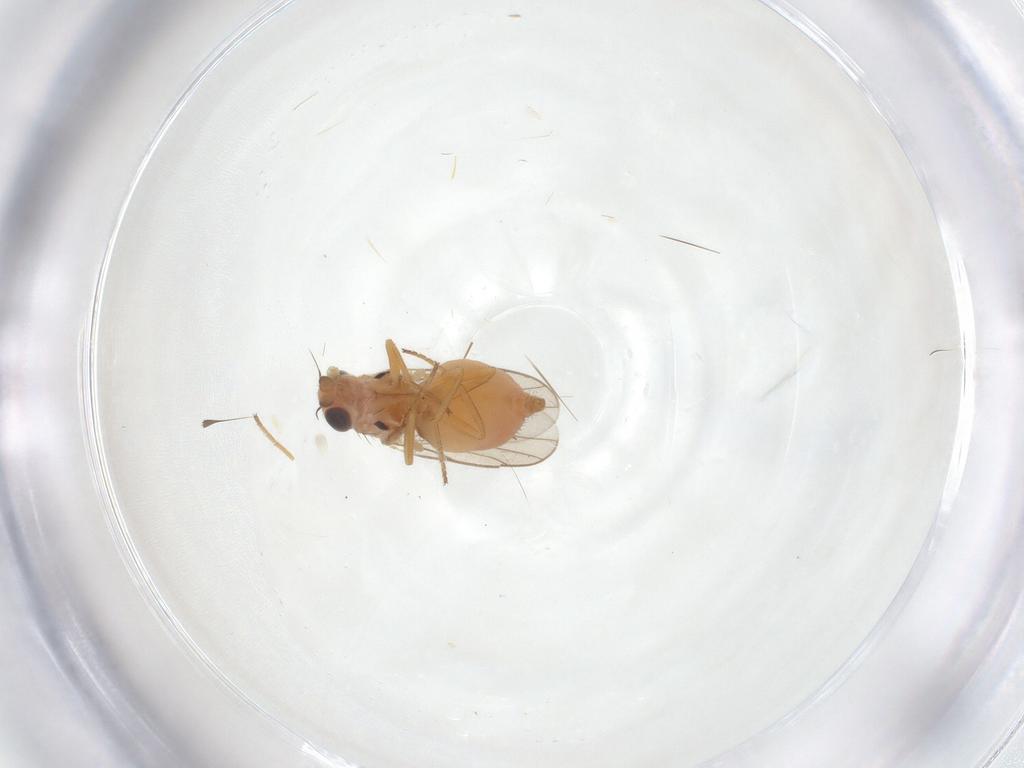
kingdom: Animalia
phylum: Arthropoda
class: Insecta
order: Diptera
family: Chloropidae
